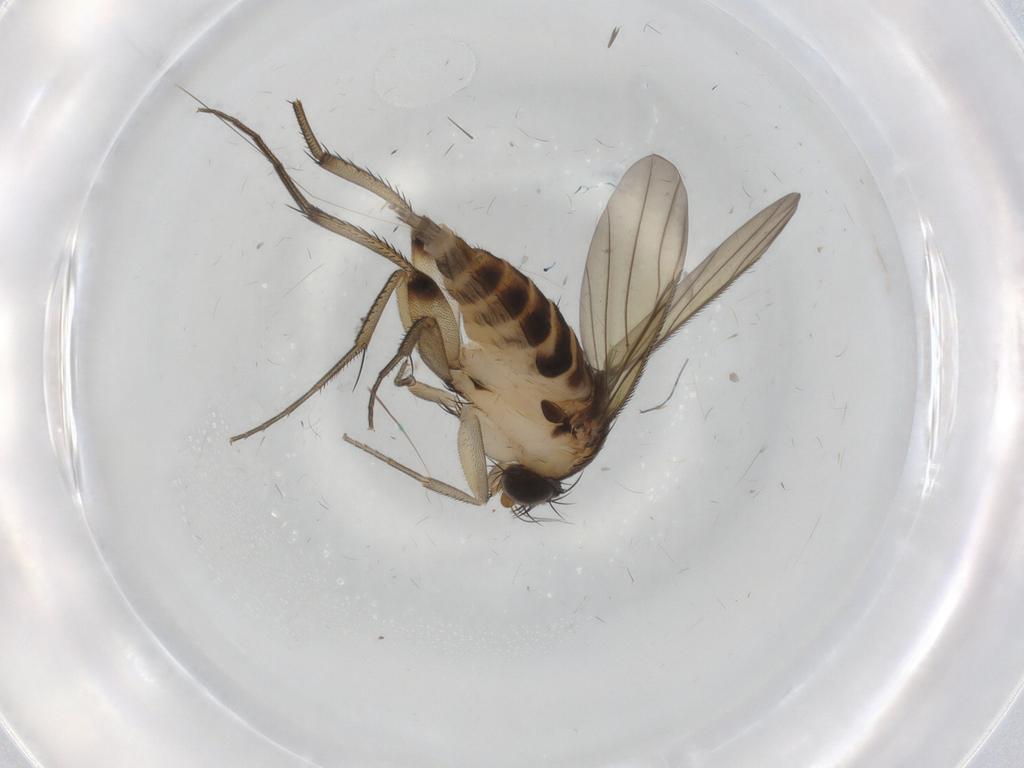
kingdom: Animalia
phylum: Arthropoda
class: Insecta
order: Diptera
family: Phoridae
